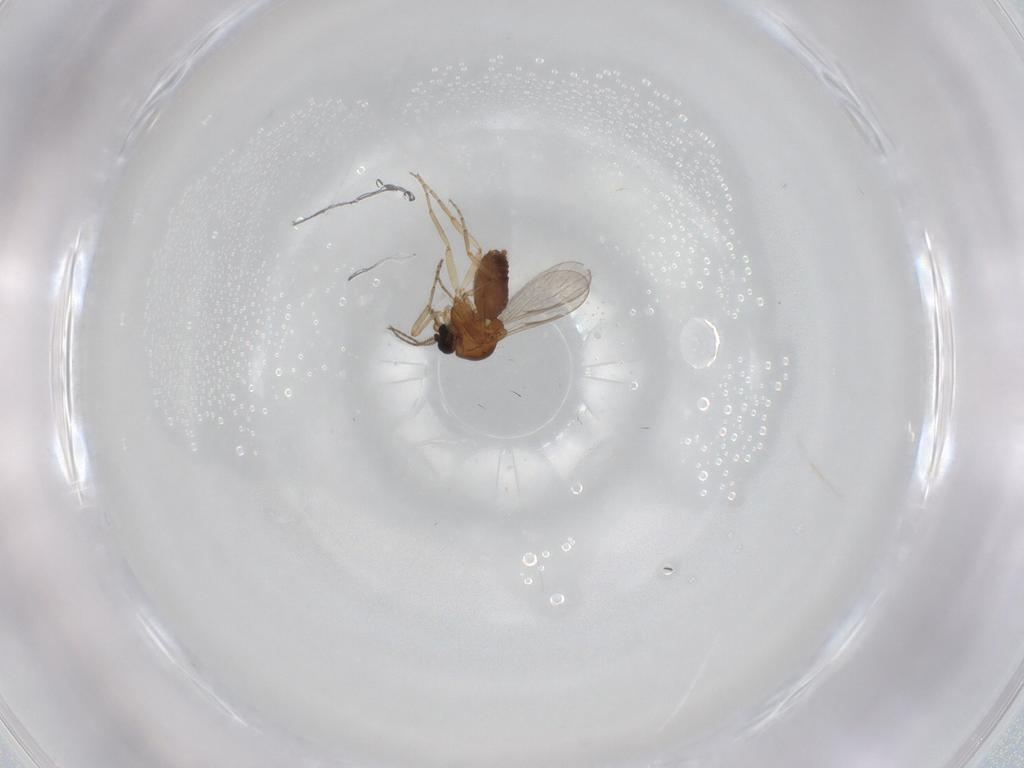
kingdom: Animalia
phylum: Arthropoda
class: Insecta
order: Diptera
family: Ceratopogonidae
